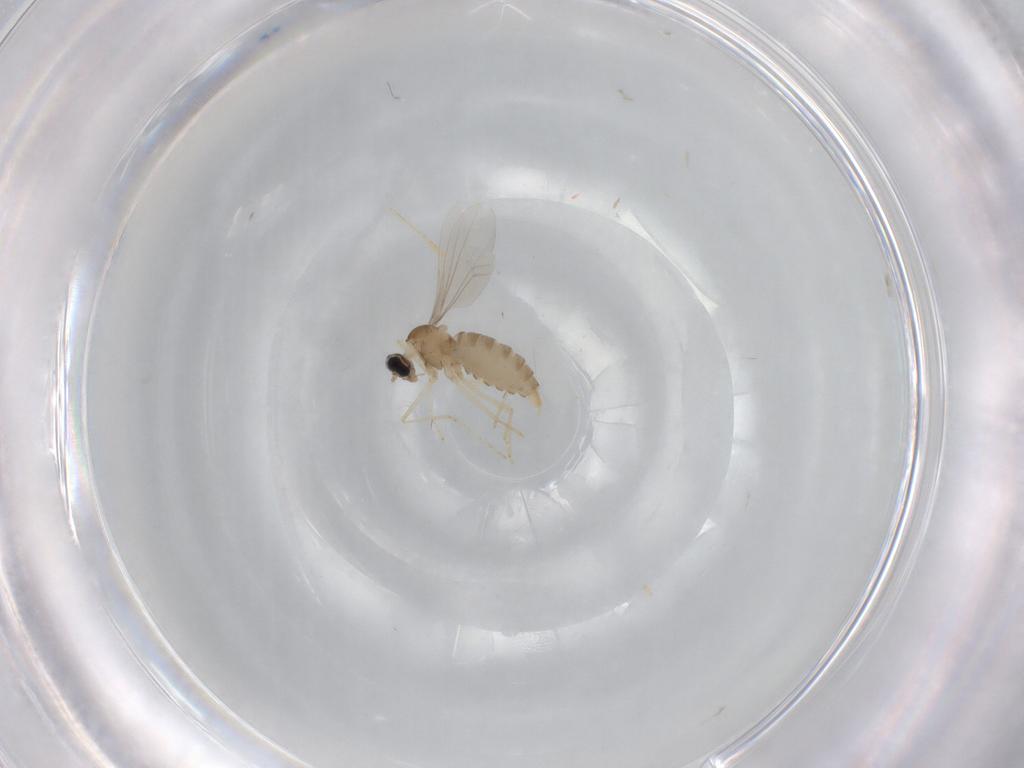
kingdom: Animalia
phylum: Arthropoda
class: Insecta
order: Diptera
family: Cecidomyiidae
